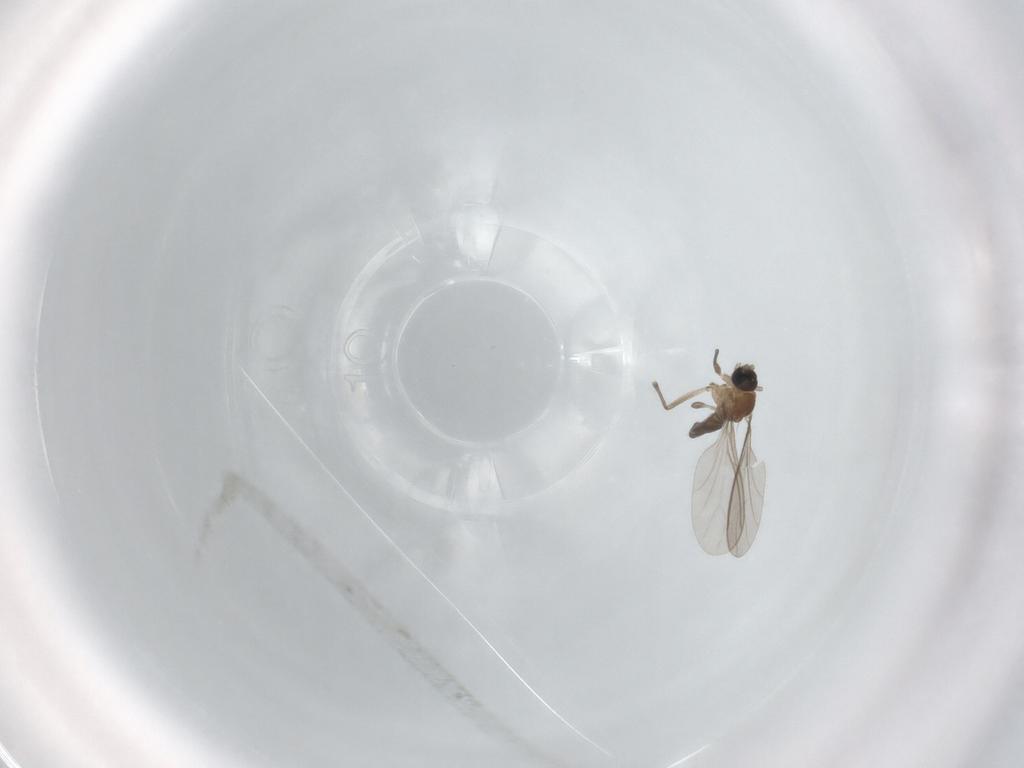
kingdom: Animalia
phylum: Arthropoda
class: Insecta
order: Diptera
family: Sciaridae
